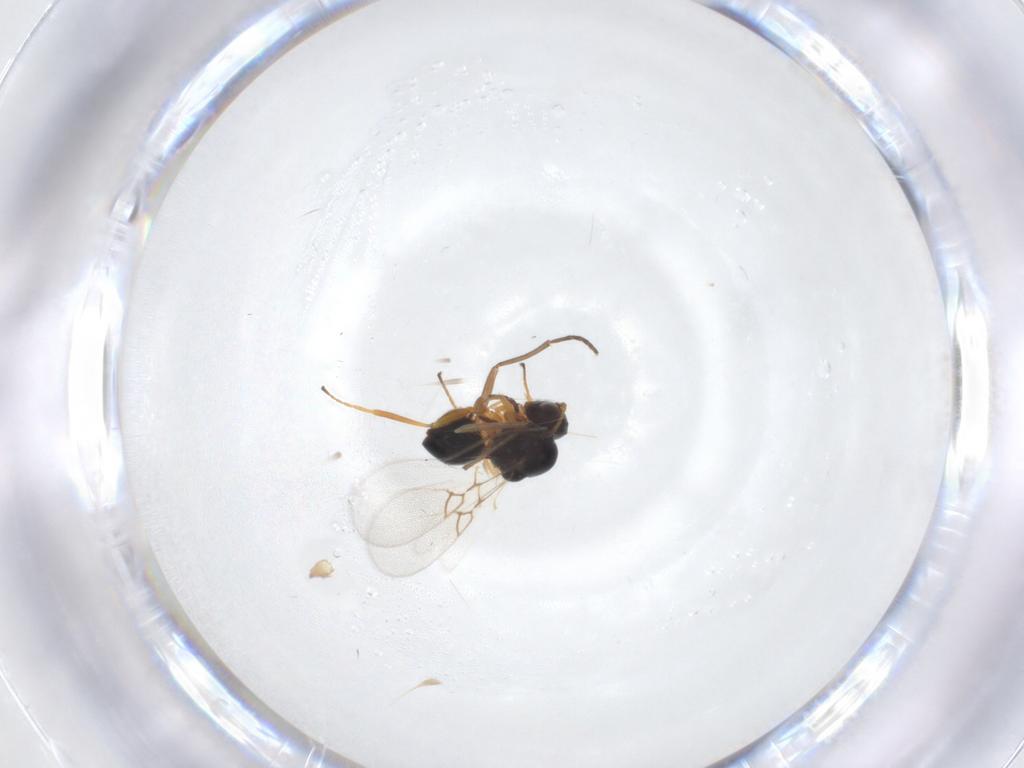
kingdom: Animalia
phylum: Arthropoda
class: Insecta
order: Hymenoptera
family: Figitidae
